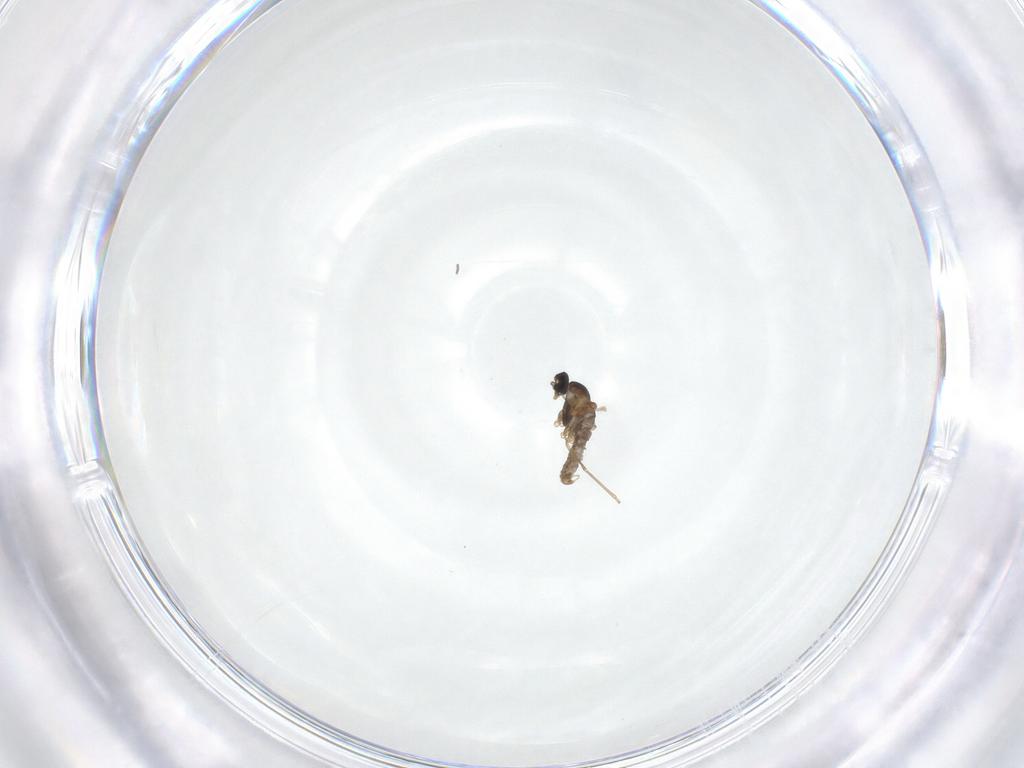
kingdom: Animalia
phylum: Arthropoda
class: Insecta
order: Diptera
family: Cecidomyiidae
